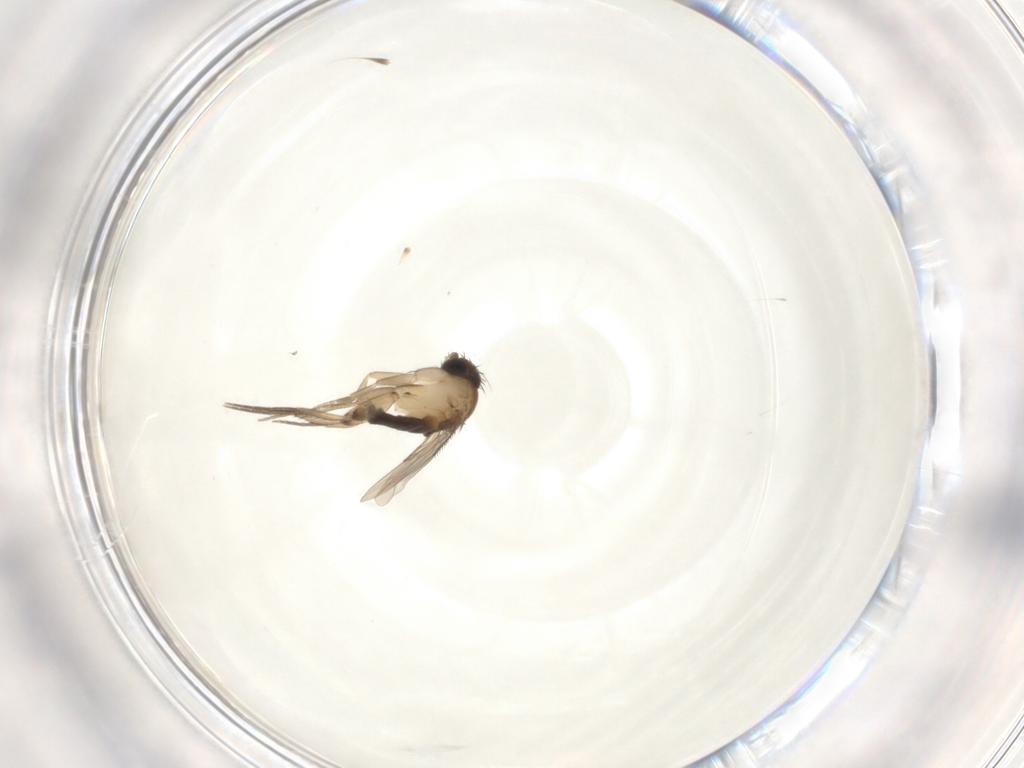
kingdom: Animalia
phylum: Arthropoda
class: Insecta
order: Diptera
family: Phoridae
